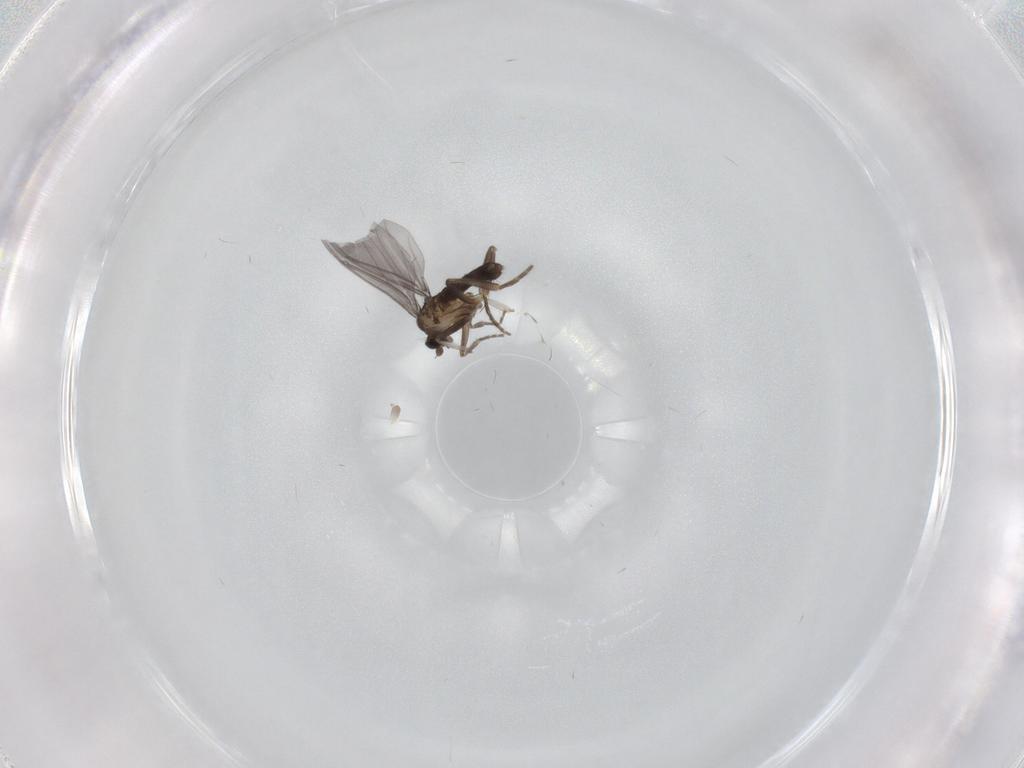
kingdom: Animalia
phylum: Arthropoda
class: Insecta
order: Diptera
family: Phoridae
